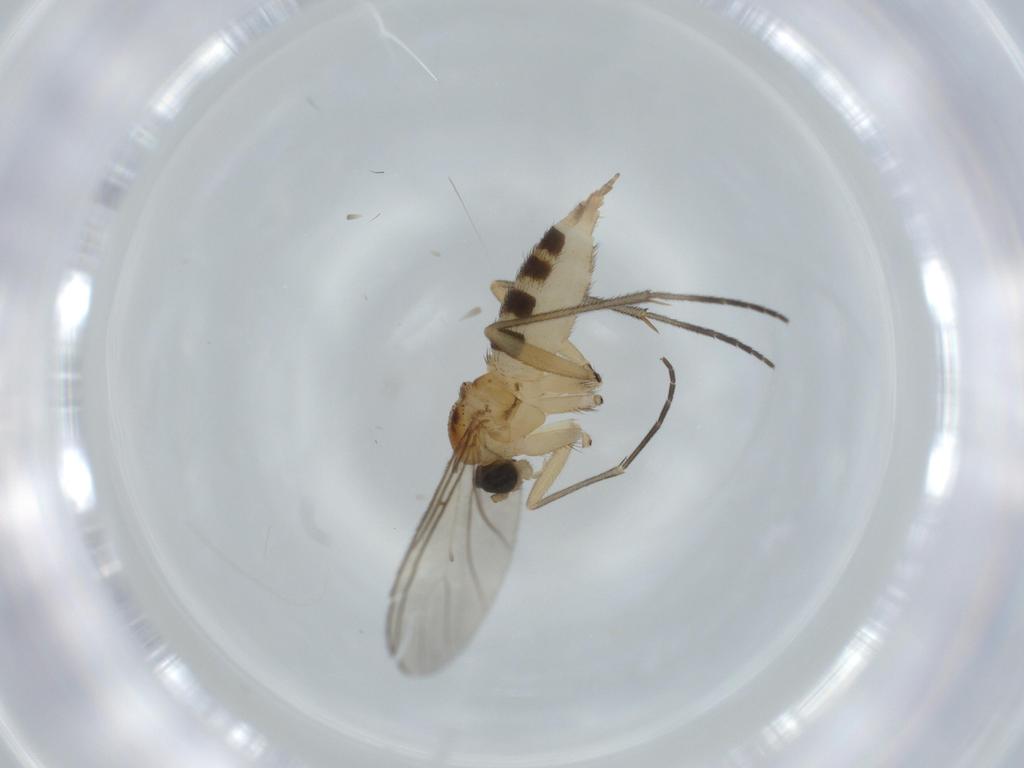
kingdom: Animalia
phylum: Arthropoda
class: Insecta
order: Diptera
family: Sciaridae
